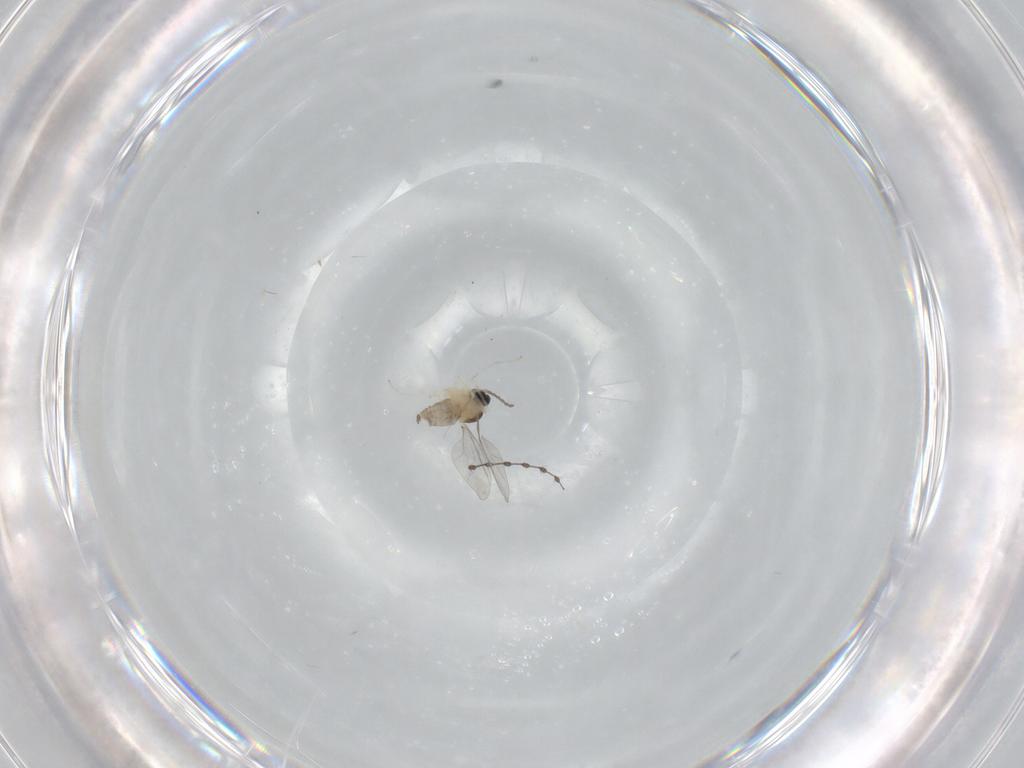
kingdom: Animalia
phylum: Arthropoda
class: Insecta
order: Diptera
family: Cecidomyiidae
